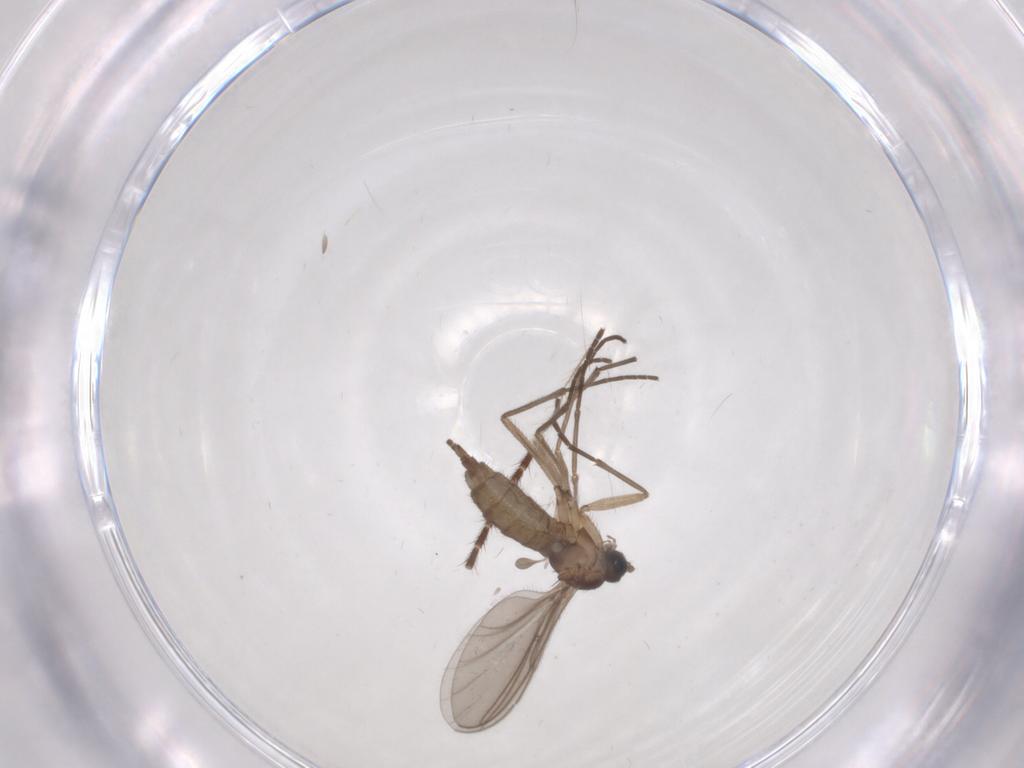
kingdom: Animalia
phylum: Arthropoda
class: Insecta
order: Diptera
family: Sciaridae
